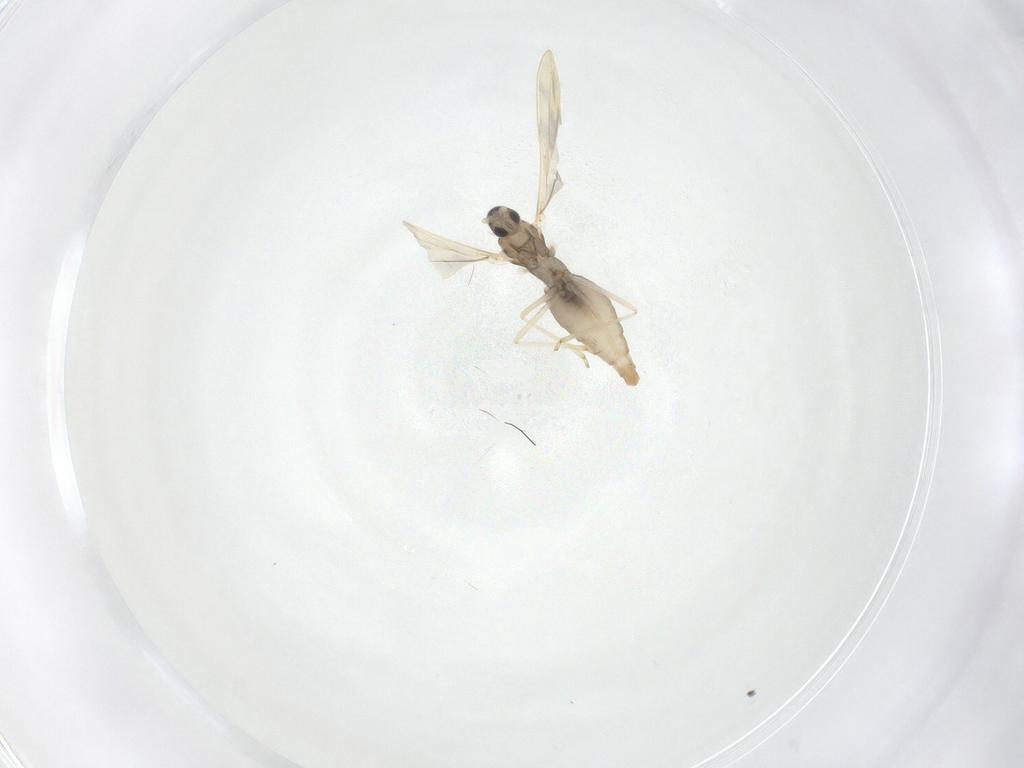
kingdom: Animalia
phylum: Arthropoda
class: Insecta
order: Diptera
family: Cecidomyiidae
